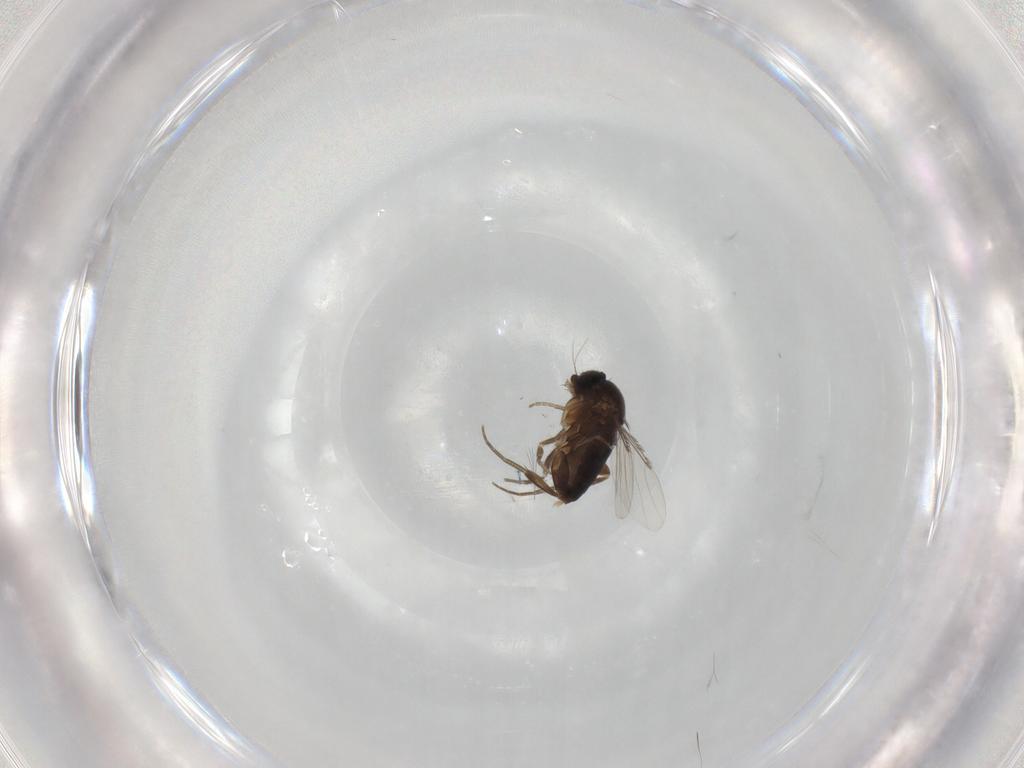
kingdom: Animalia
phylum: Arthropoda
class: Insecta
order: Diptera
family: Phoridae
